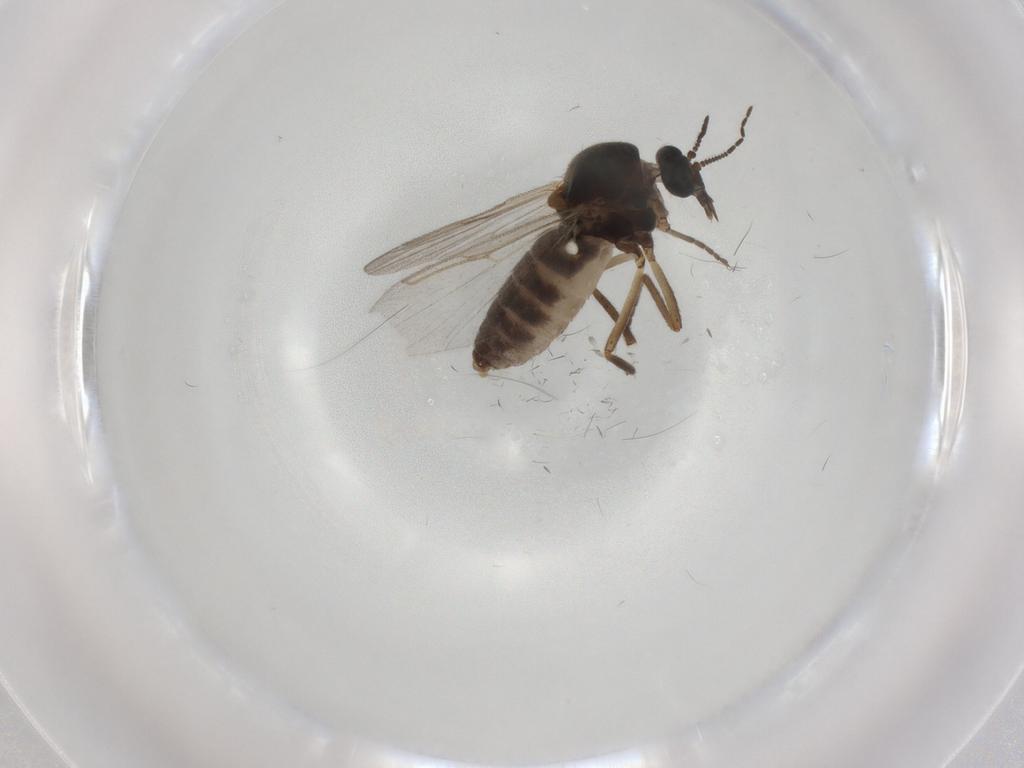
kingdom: Animalia
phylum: Arthropoda
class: Insecta
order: Diptera
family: Ceratopogonidae
